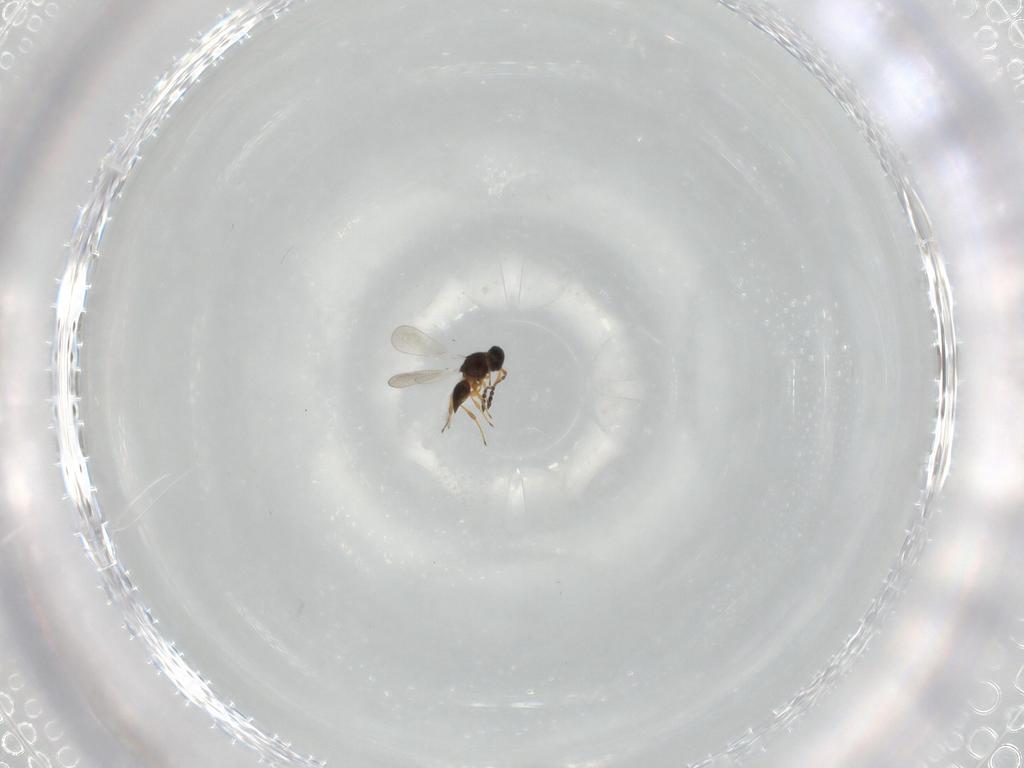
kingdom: Animalia
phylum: Arthropoda
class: Insecta
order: Hymenoptera
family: Platygastridae
